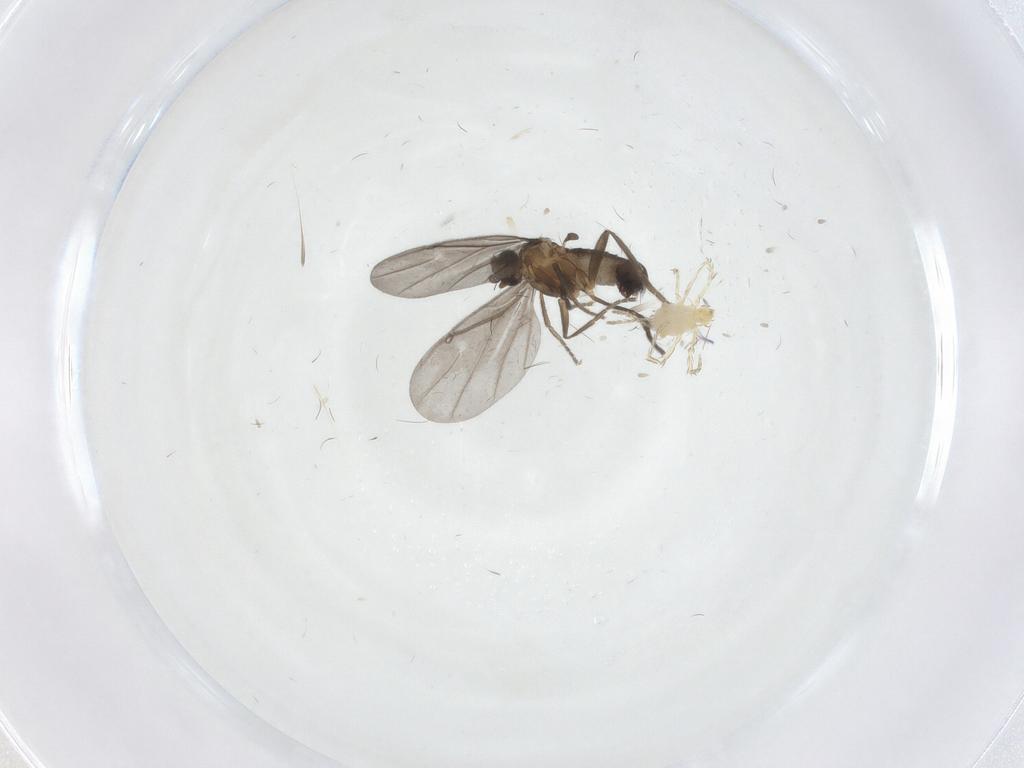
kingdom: Animalia
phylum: Arthropoda
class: Insecta
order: Diptera
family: Phoridae
